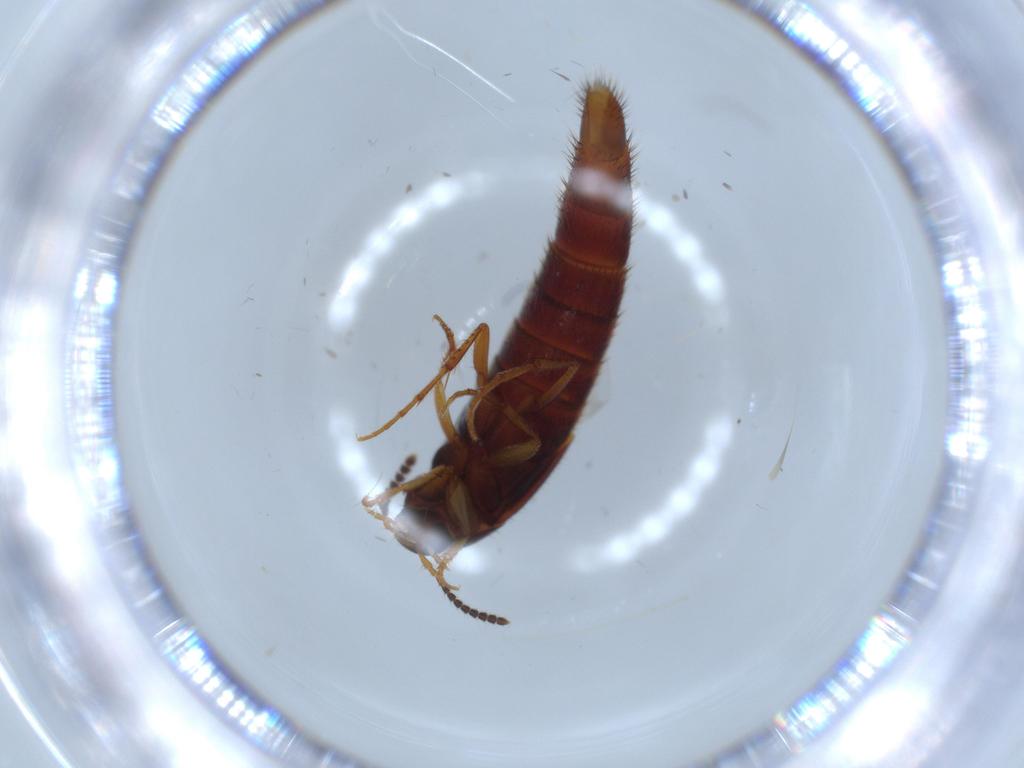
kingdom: Animalia
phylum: Arthropoda
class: Insecta
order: Coleoptera
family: Staphylinidae
